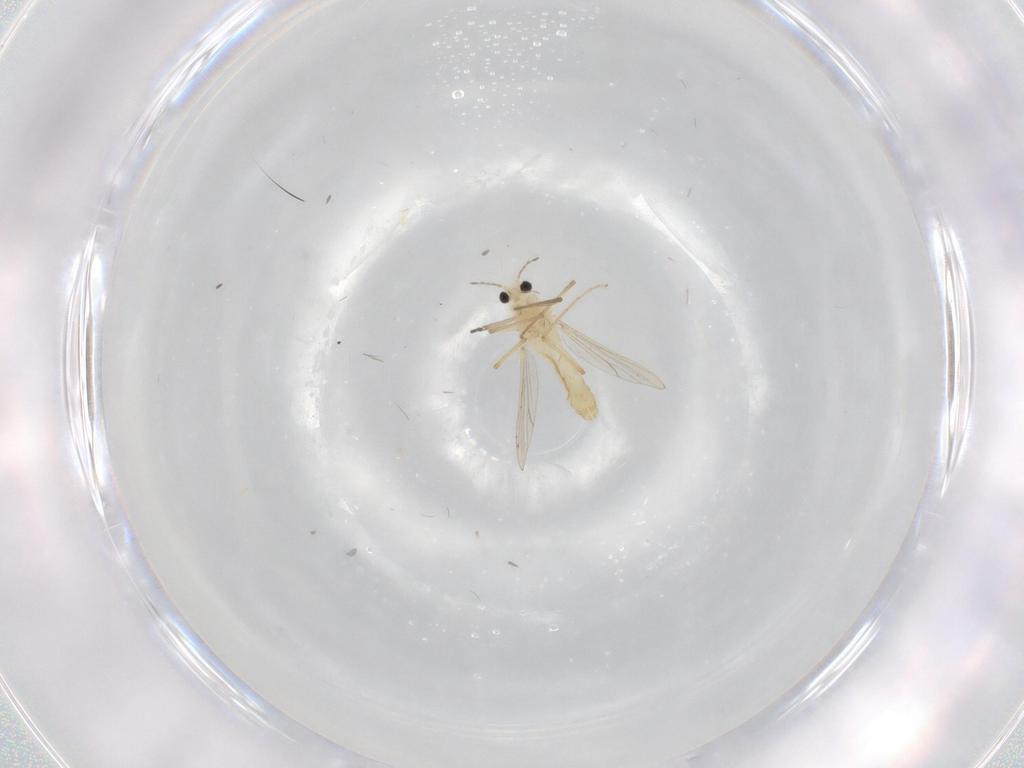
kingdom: Animalia
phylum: Arthropoda
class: Insecta
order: Diptera
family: Chironomidae
